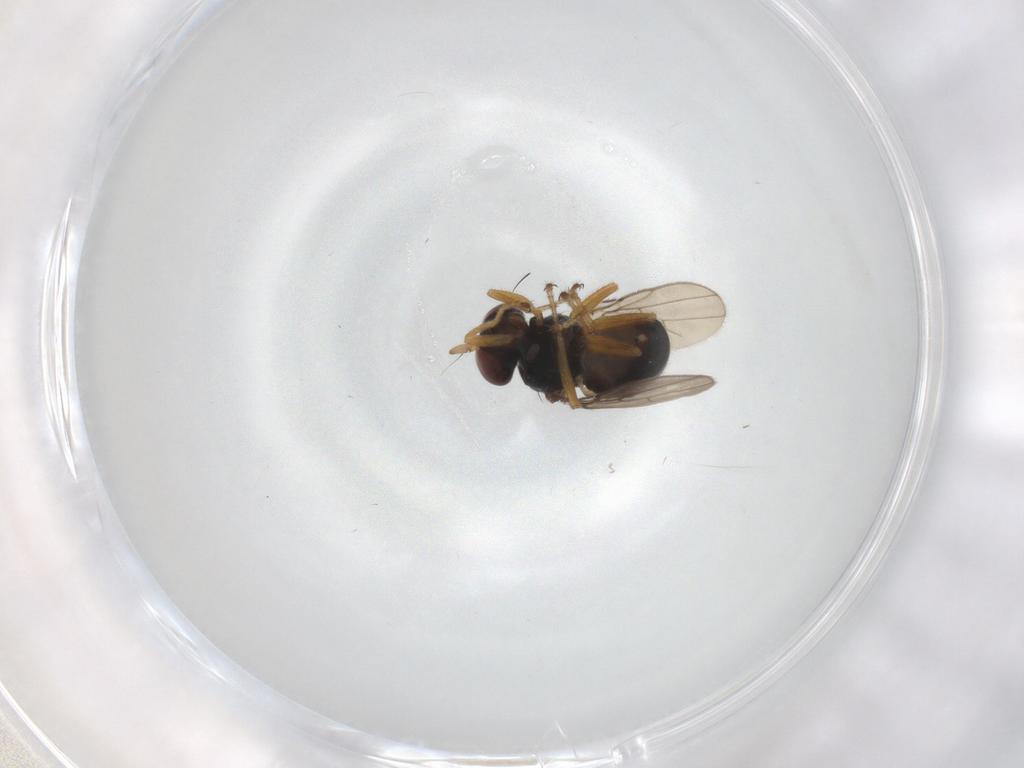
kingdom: Animalia
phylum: Arthropoda
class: Insecta
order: Diptera
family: Ephydridae
